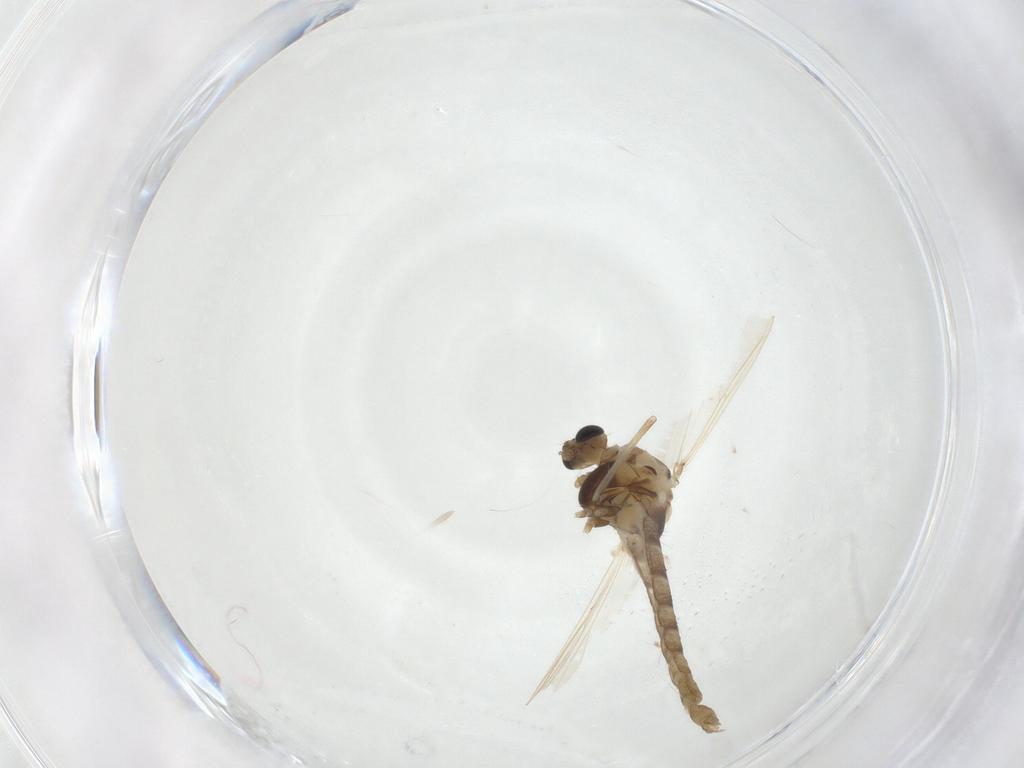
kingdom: Animalia
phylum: Arthropoda
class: Insecta
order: Diptera
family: Chironomidae
